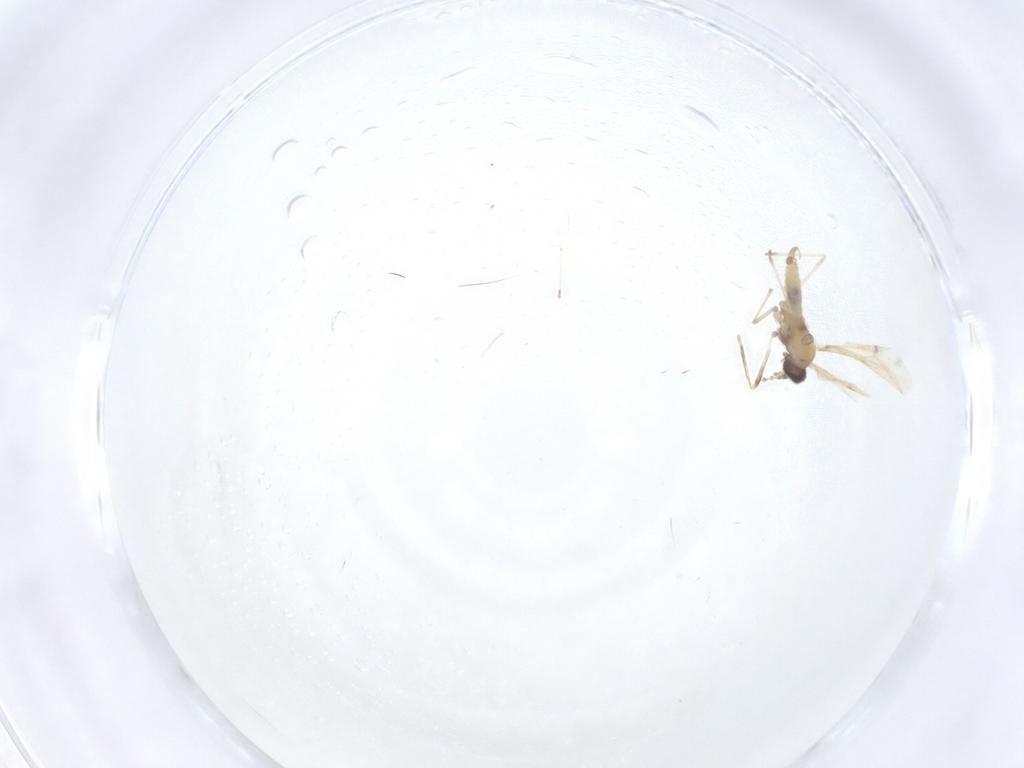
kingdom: Animalia
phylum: Arthropoda
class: Insecta
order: Diptera
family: Cecidomyiidae
